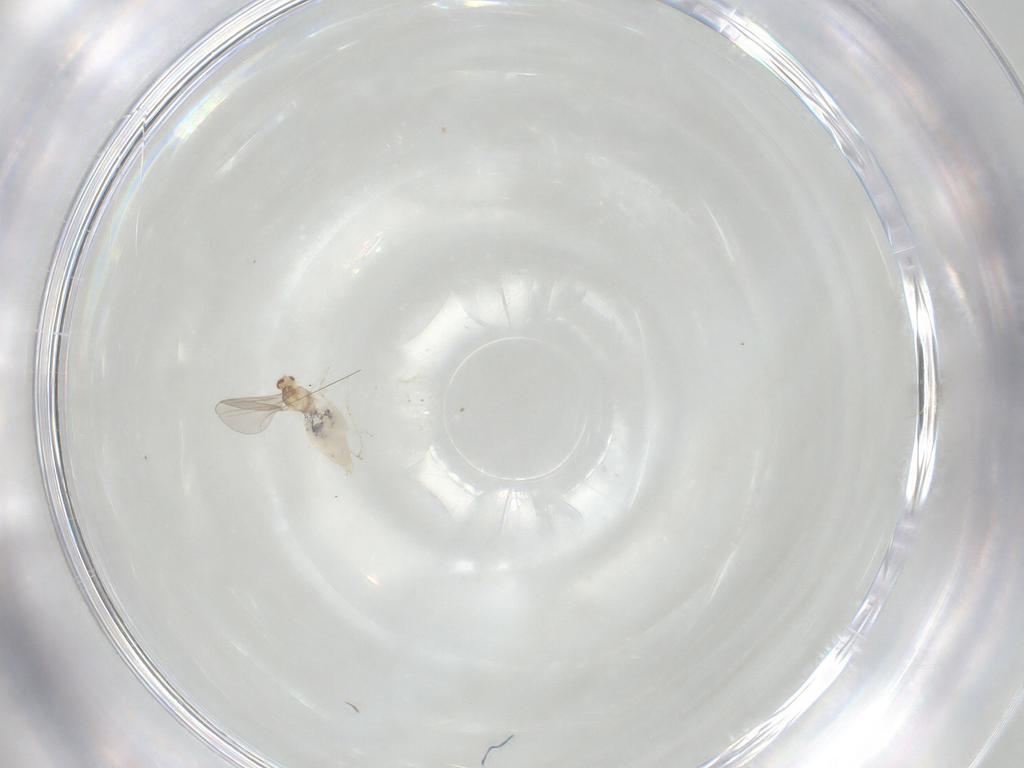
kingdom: Animalia
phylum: Arthropoda
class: Insecta
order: Diptera
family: Cecidomyiidae
